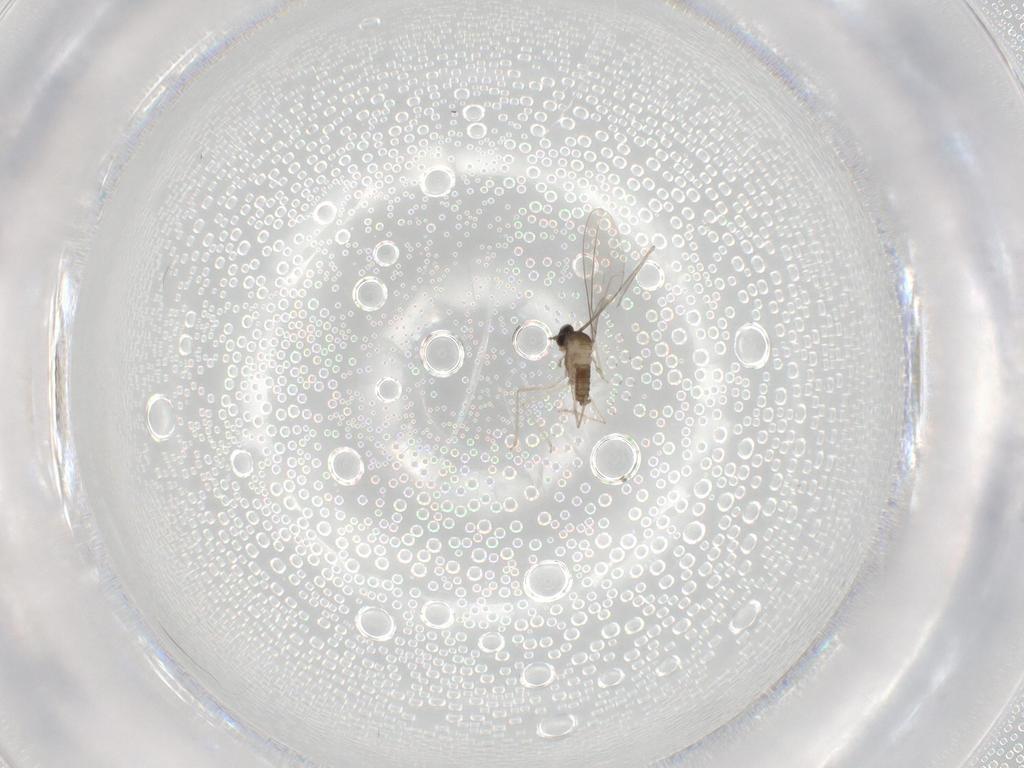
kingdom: Animalia
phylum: Arthropoda
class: Insecta
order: Diptera
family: Cecidomyiidae
